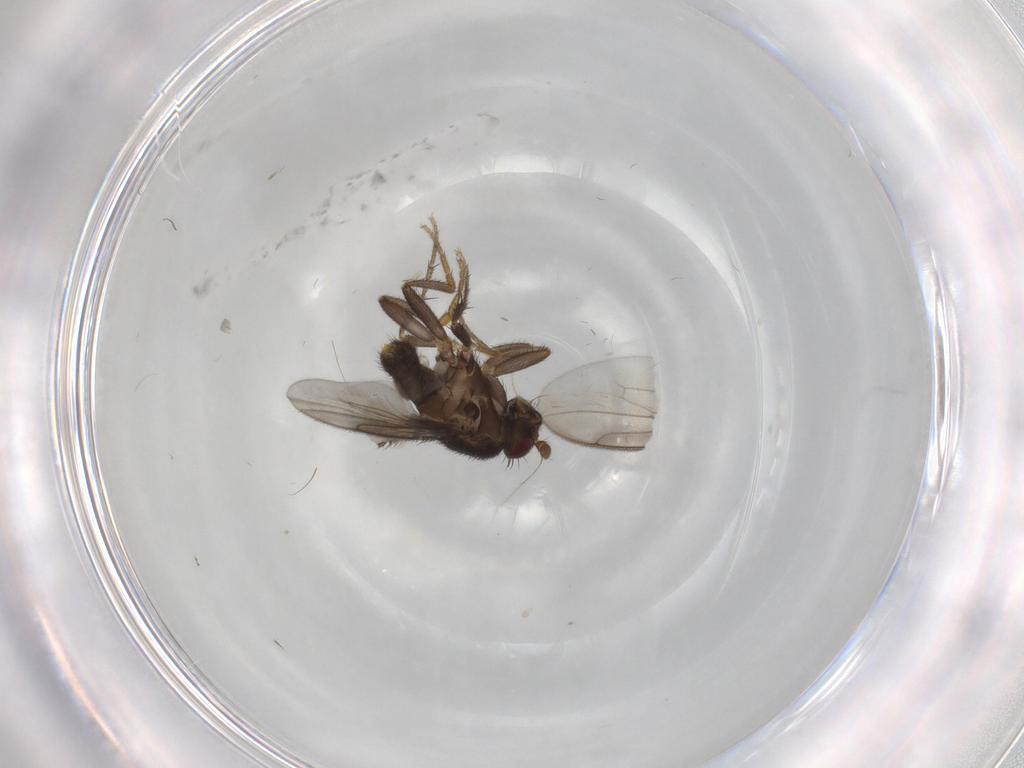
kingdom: Animalia
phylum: Arthropoda
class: Insecta
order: Diptera
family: Sphaeroceridae
